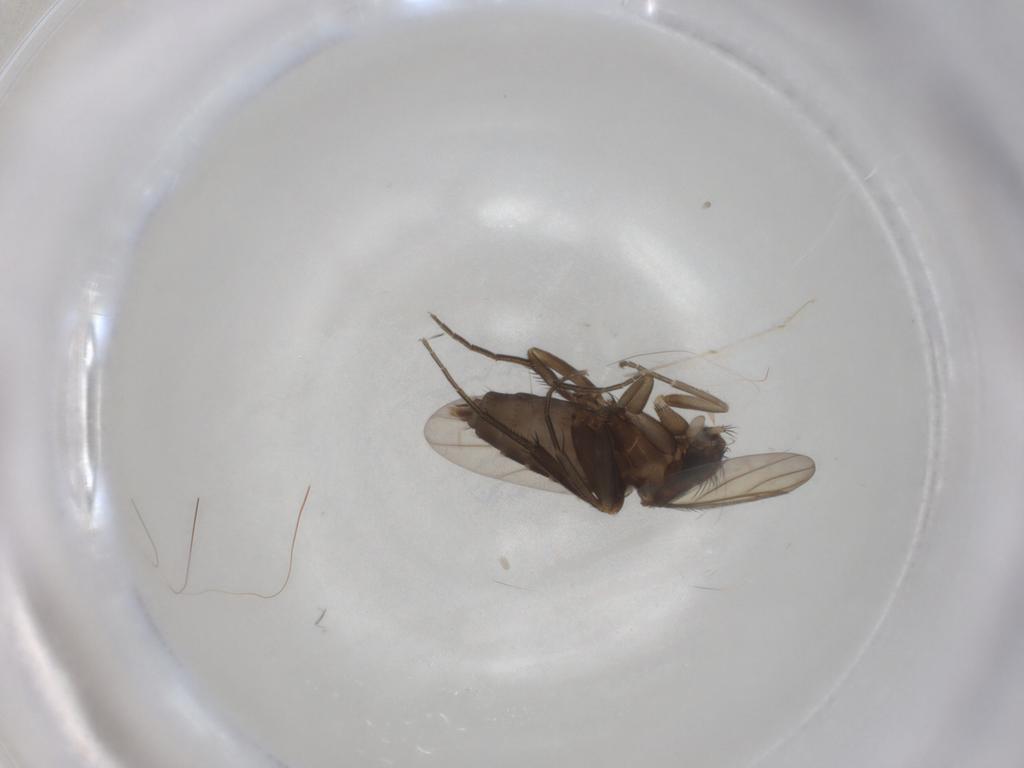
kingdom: Animalia
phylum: Arthropoda
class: Insecta
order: Diptera
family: Phoridae
